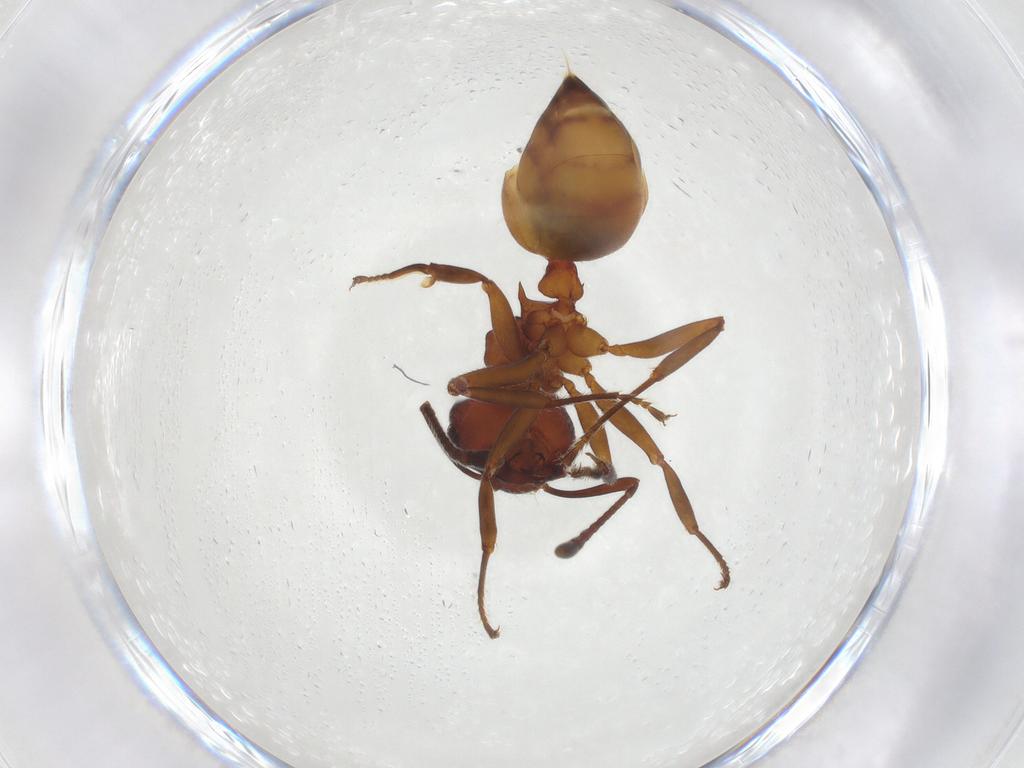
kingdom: Animalia
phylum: Arthropoda
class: Insecta
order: Hymenoptera
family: Formicidae
